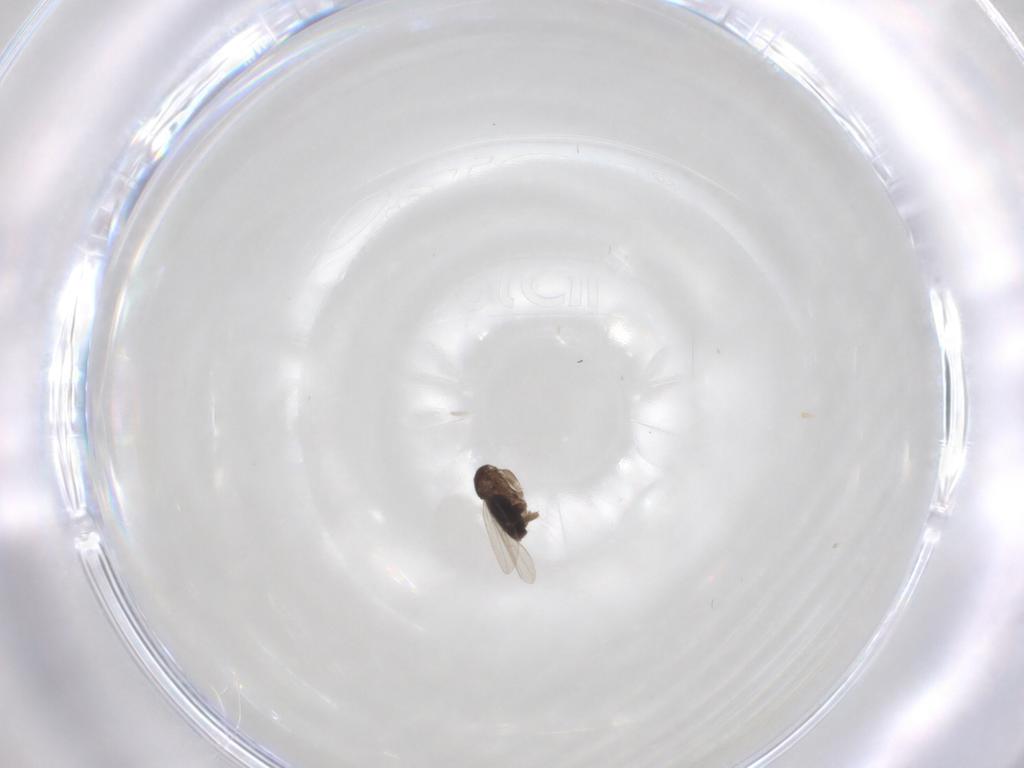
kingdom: Animalia
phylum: Arthropoda
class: Insecta
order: Diptera
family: Phoridae
